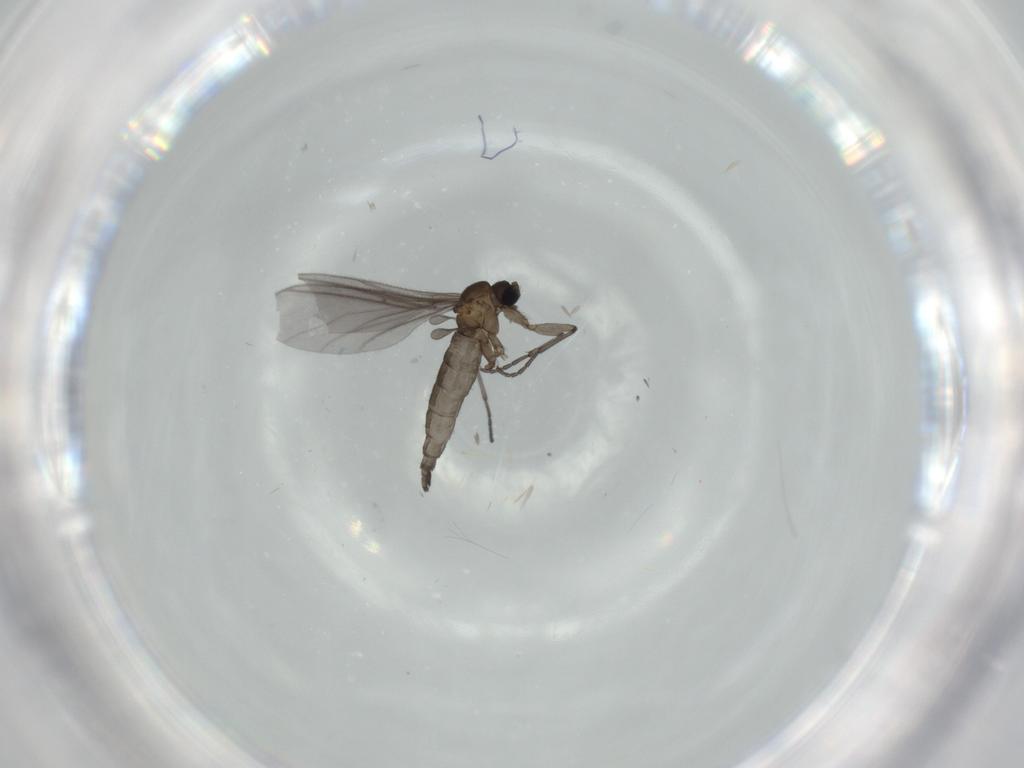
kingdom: Animalia
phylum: Arthropoda
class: Insecta
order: Diptera
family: Sciaridae
